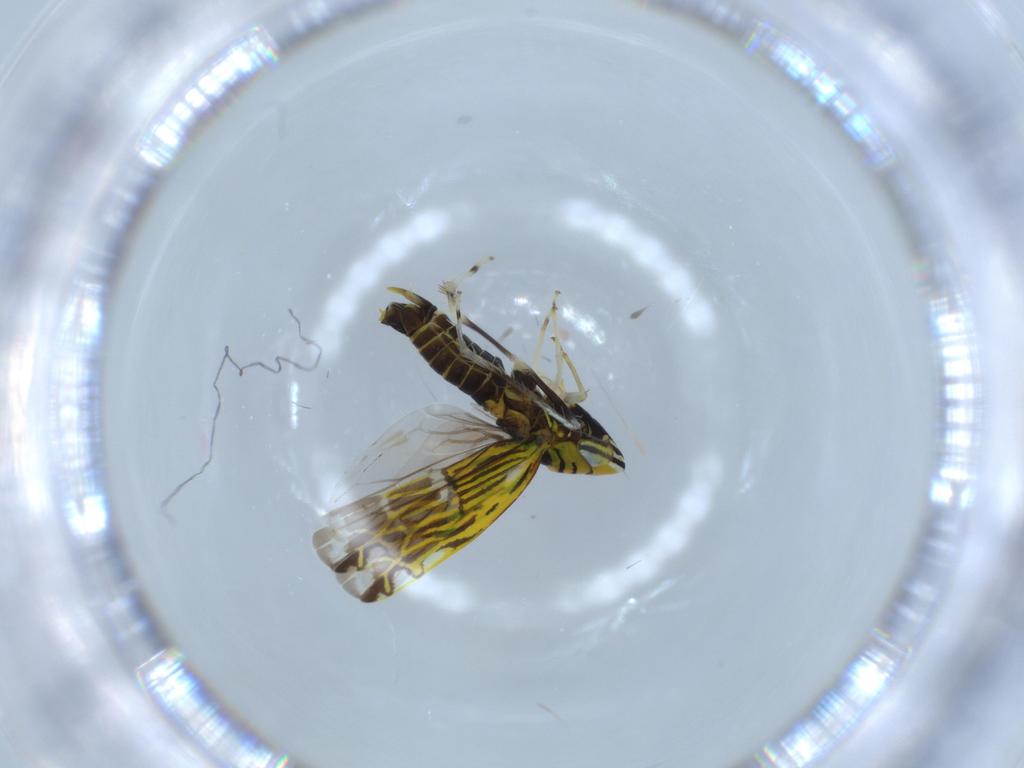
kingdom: Animalia
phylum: Arthropoda
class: Insecta
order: Hemiptera
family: Cicadellidae
